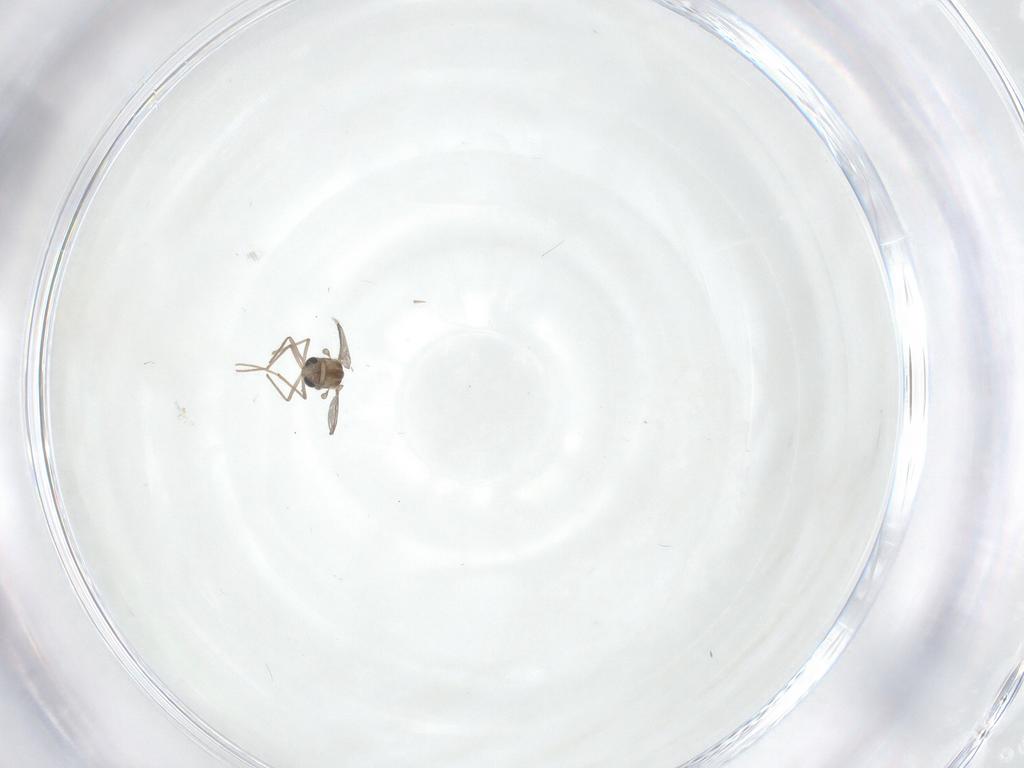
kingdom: Animalia
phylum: Arthropoda
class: Insecta
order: Diptera
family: Chironomidae
